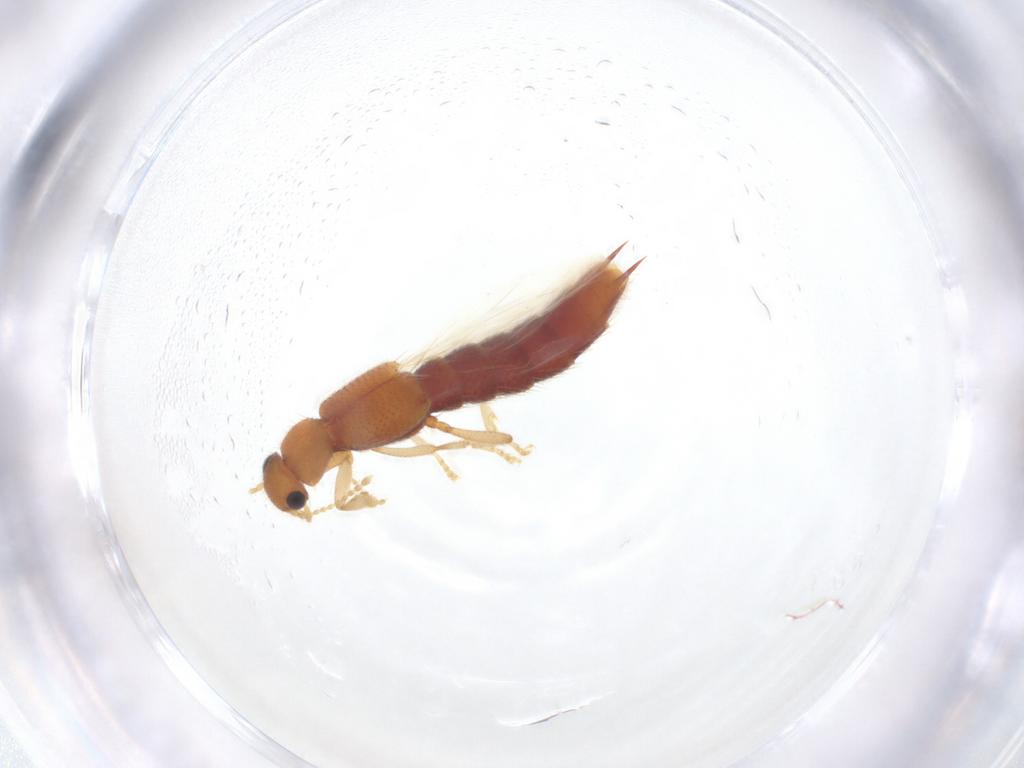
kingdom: Animalia
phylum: Arthropoda
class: Insecta
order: Coleoptera
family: Staphylinidae
